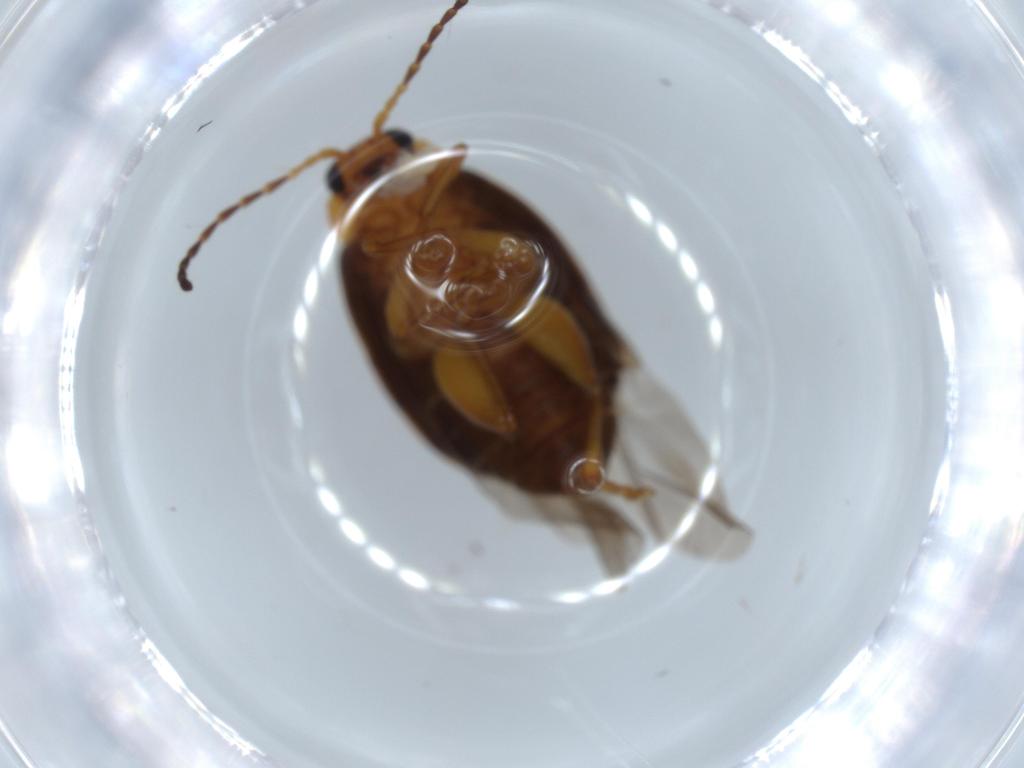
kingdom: Animalia
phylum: Arthropoda
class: Insecta
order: Coleoptera
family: Chrysomelidae
